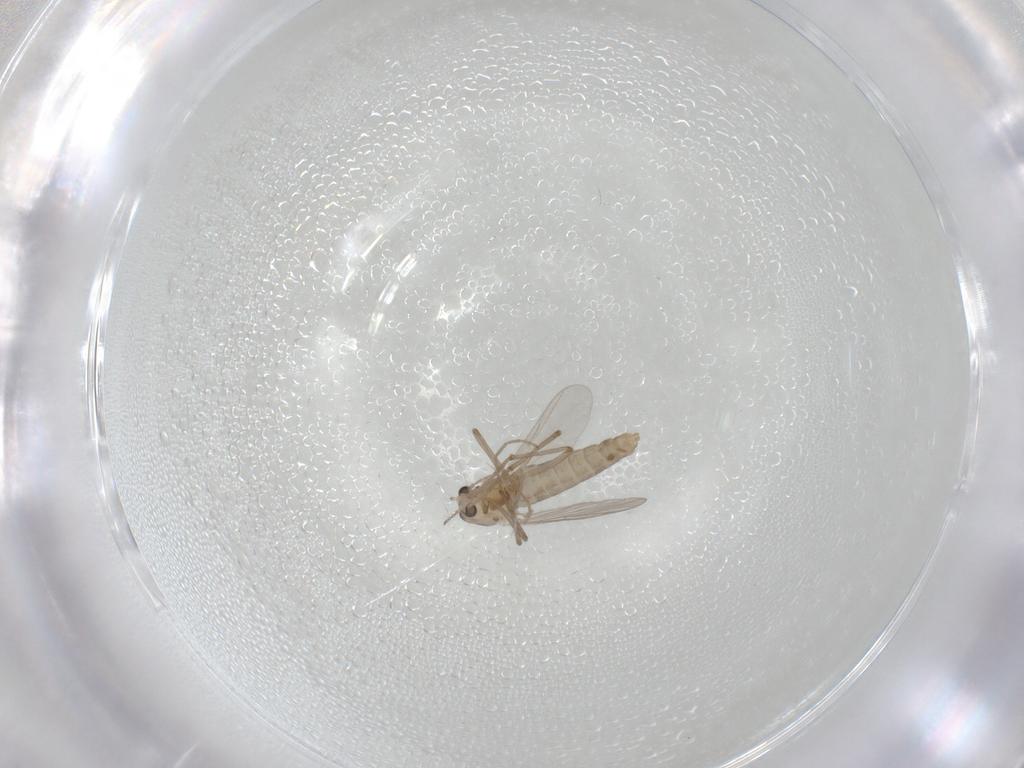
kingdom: Animalia
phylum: Arthropoda
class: Insecta
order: Diptera
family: Chironomidae
